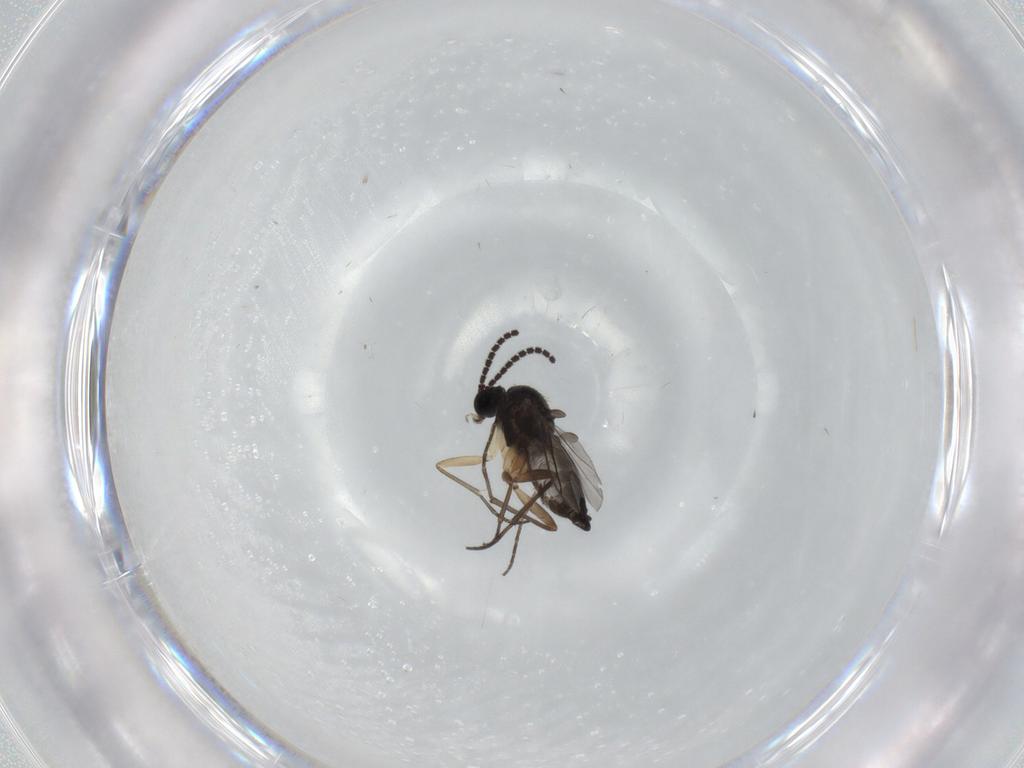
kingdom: Animalia
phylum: Arthropoda
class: Insecta
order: Diptera
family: Sciaridae
